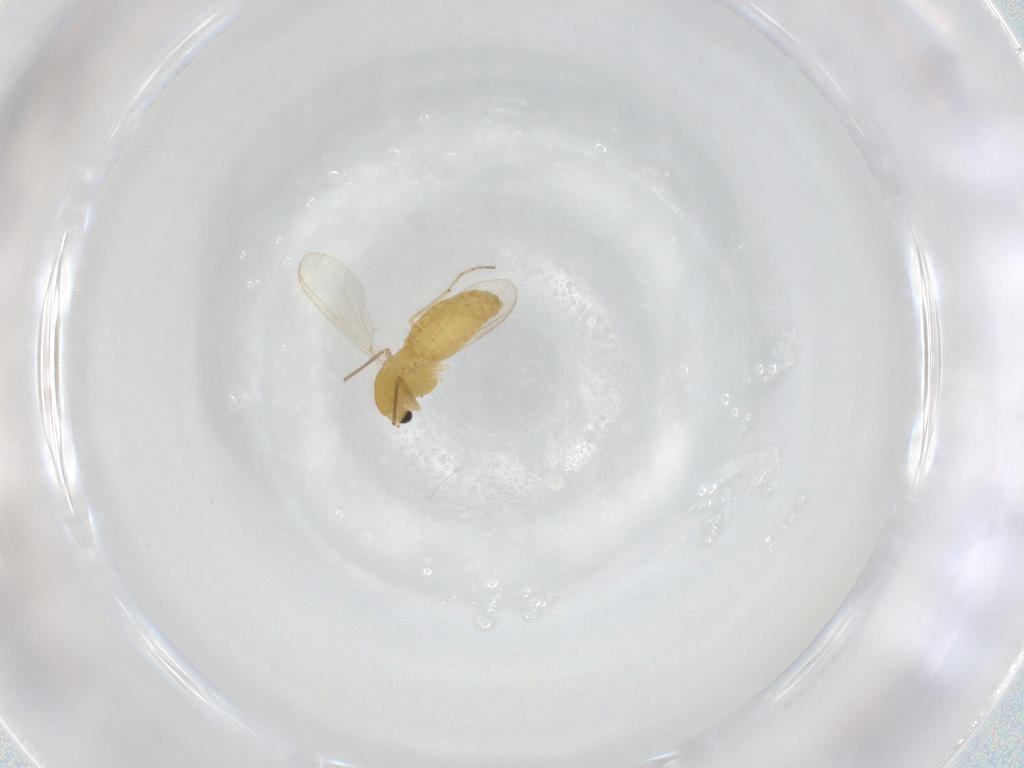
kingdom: Animalia
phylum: Arthropoda
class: Insecta
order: Diptera
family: Chironomidae
